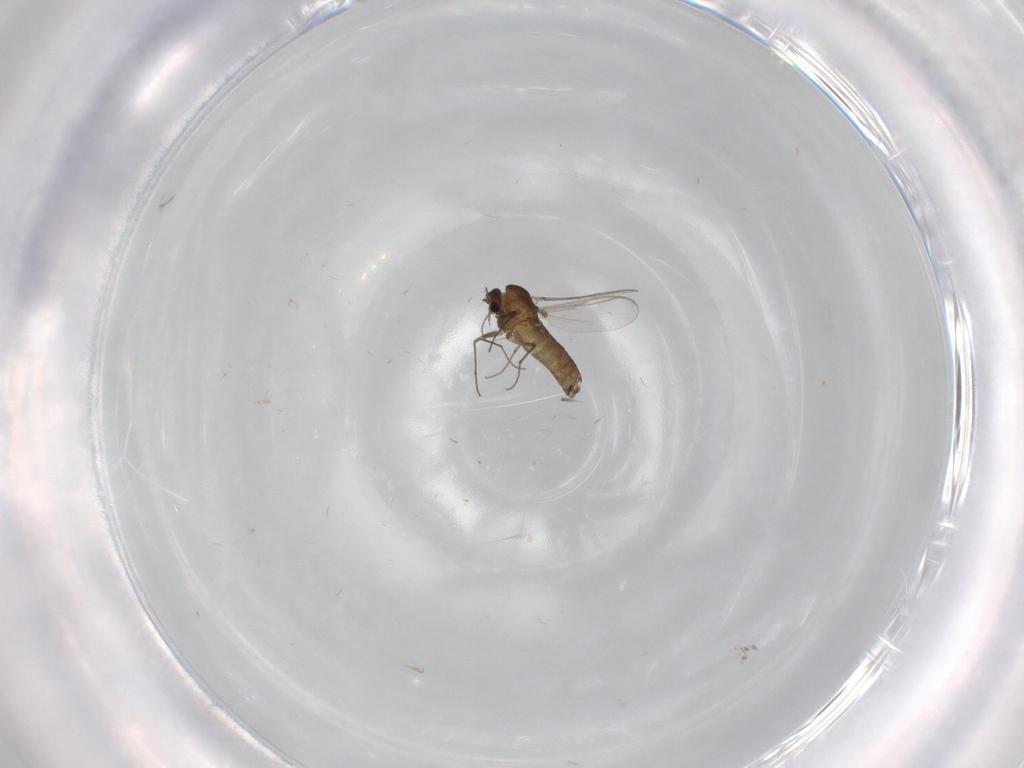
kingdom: Animalia
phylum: Arthropoda
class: Insecta
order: Diptera
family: Chironomidae
